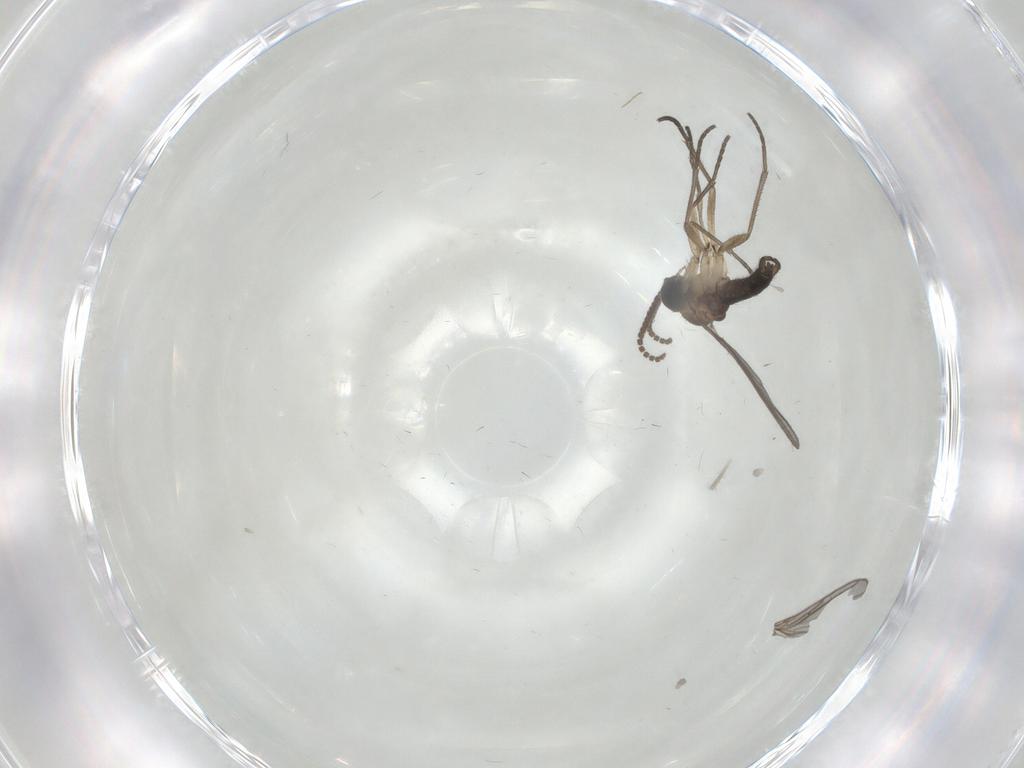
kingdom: Animalia
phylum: Arthropoda
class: Insecta
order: Diptera
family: Sciaridae
